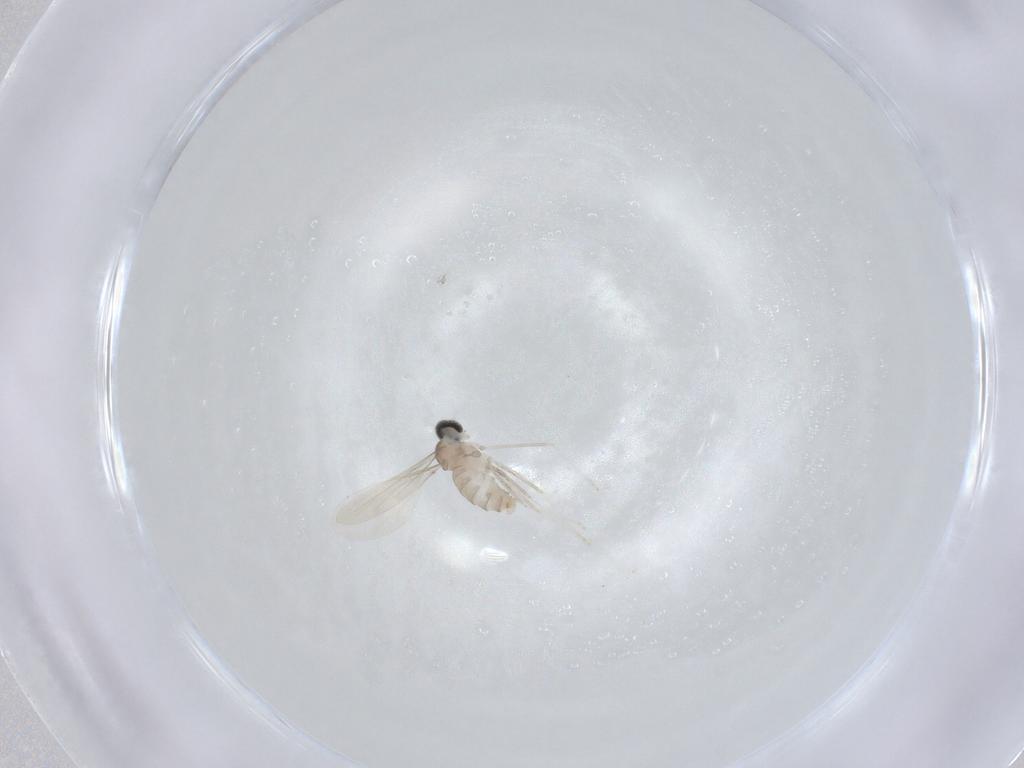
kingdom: Animalia
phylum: Arthropoda
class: Insecta
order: Diptera
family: Cecidomyiidae
